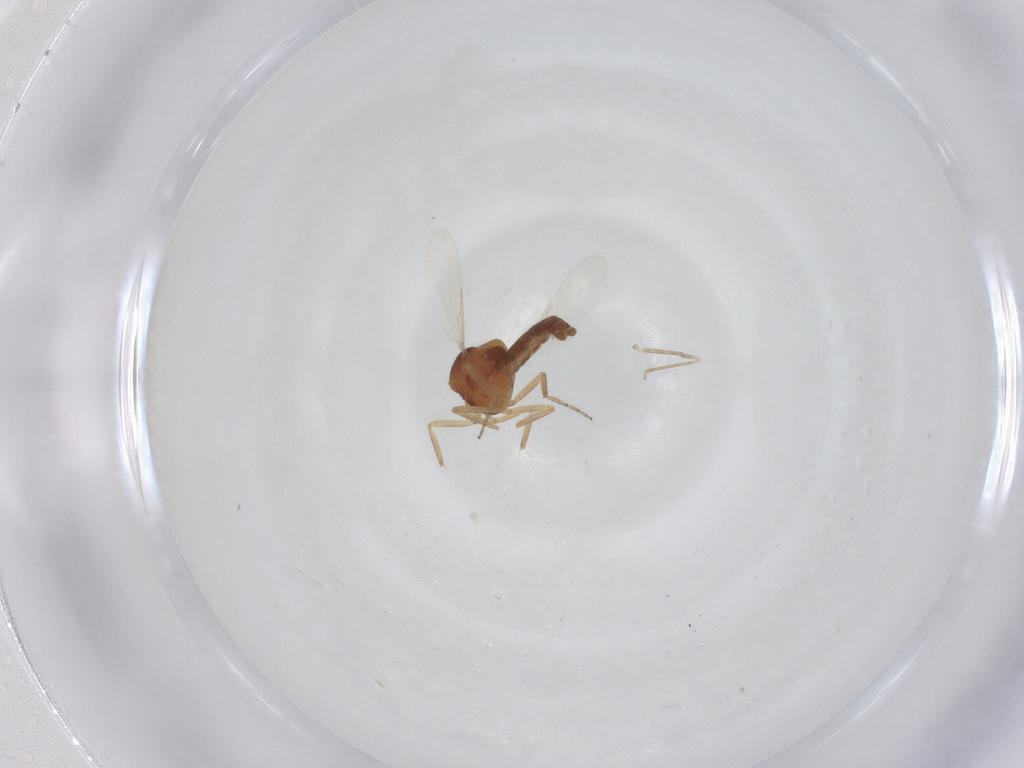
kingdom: Animalia
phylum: Arthropoda
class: Insecta
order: Diptera
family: Ceratopogonidae
